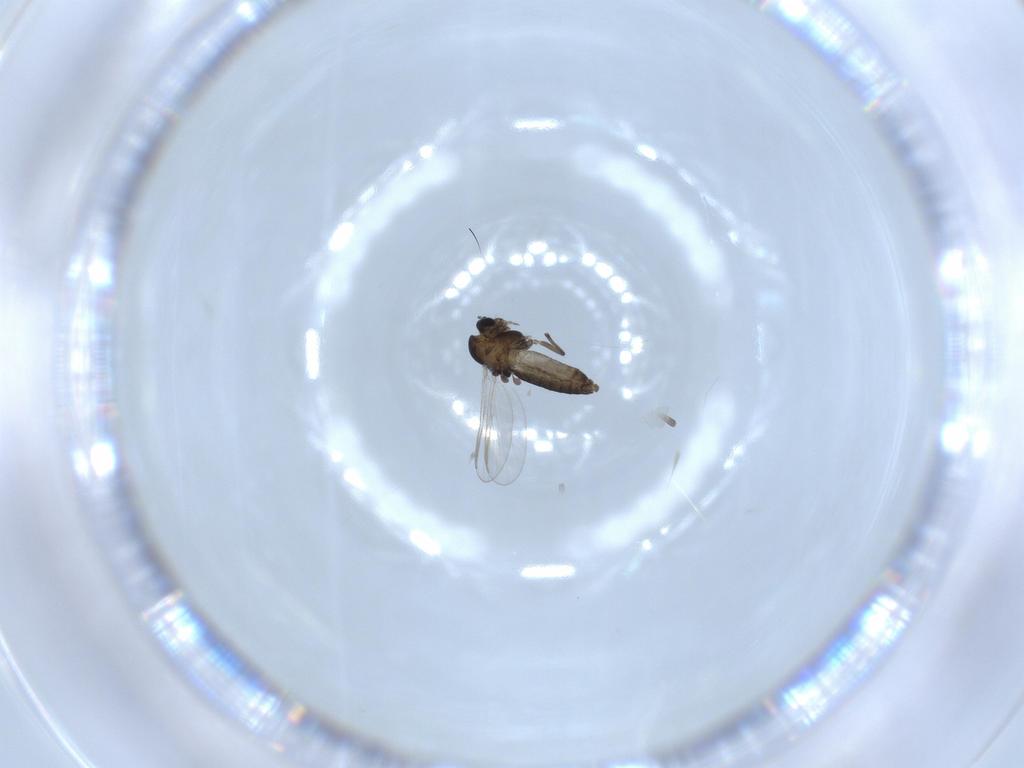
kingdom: Animalia
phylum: Arthropoda
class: Insecta
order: Diptera
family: Chironomidae
